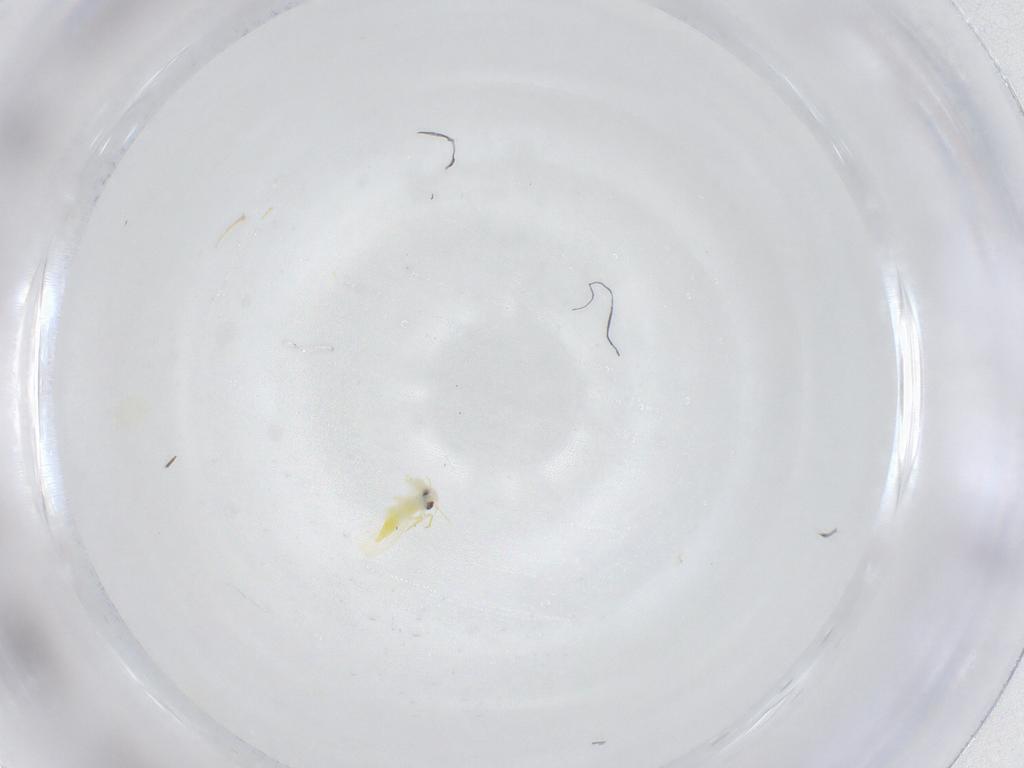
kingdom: Animalia
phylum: Arthropoda
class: Insecta
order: Hemiptera
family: Aleyrodidae
